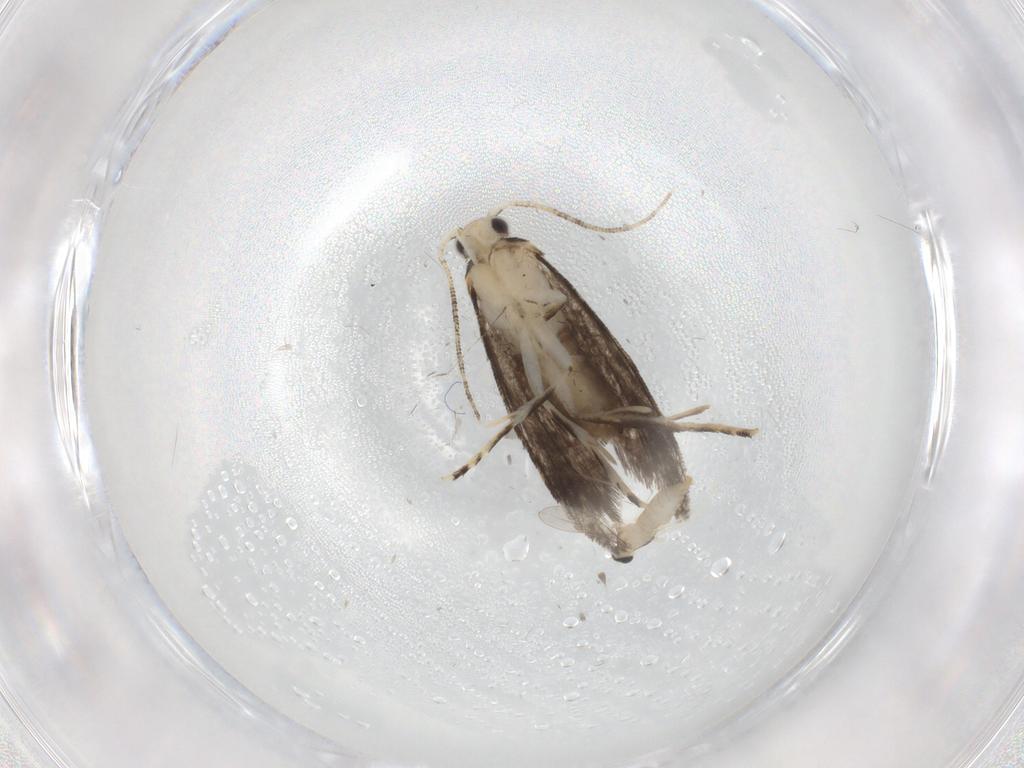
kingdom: Animalia
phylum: Arthropoda
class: Insecta
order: Lepidoptera
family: Tineidae
